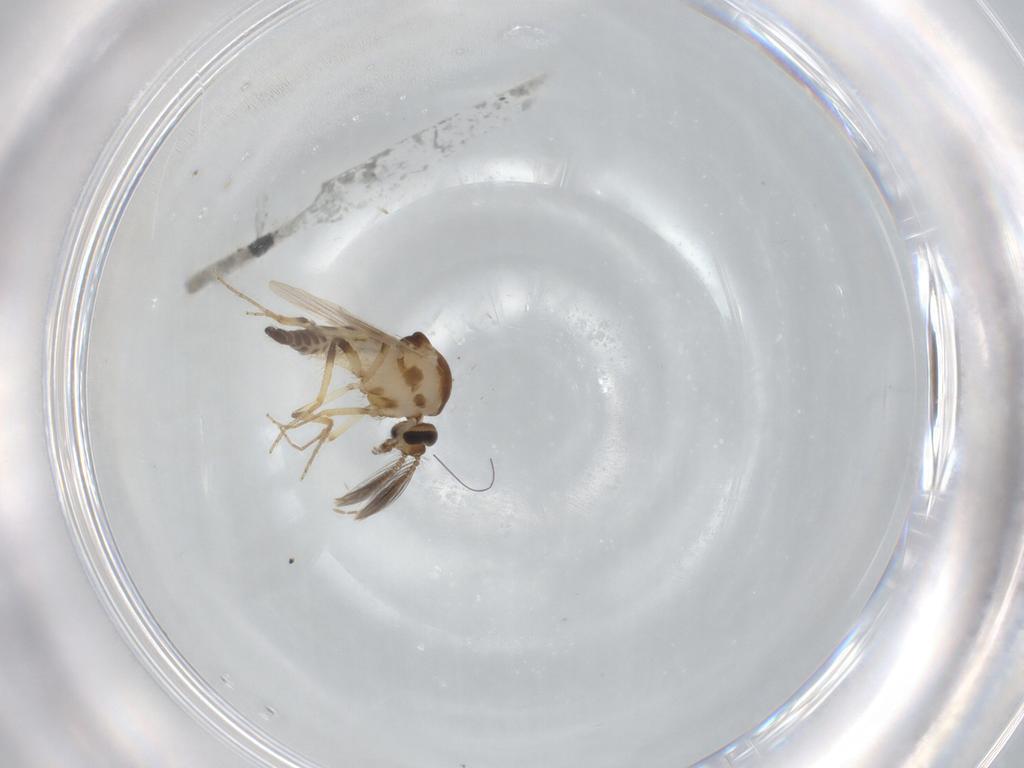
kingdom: Animalia
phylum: Arthropoda
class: Insecta
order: Diptera
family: Ceratopogonidae
